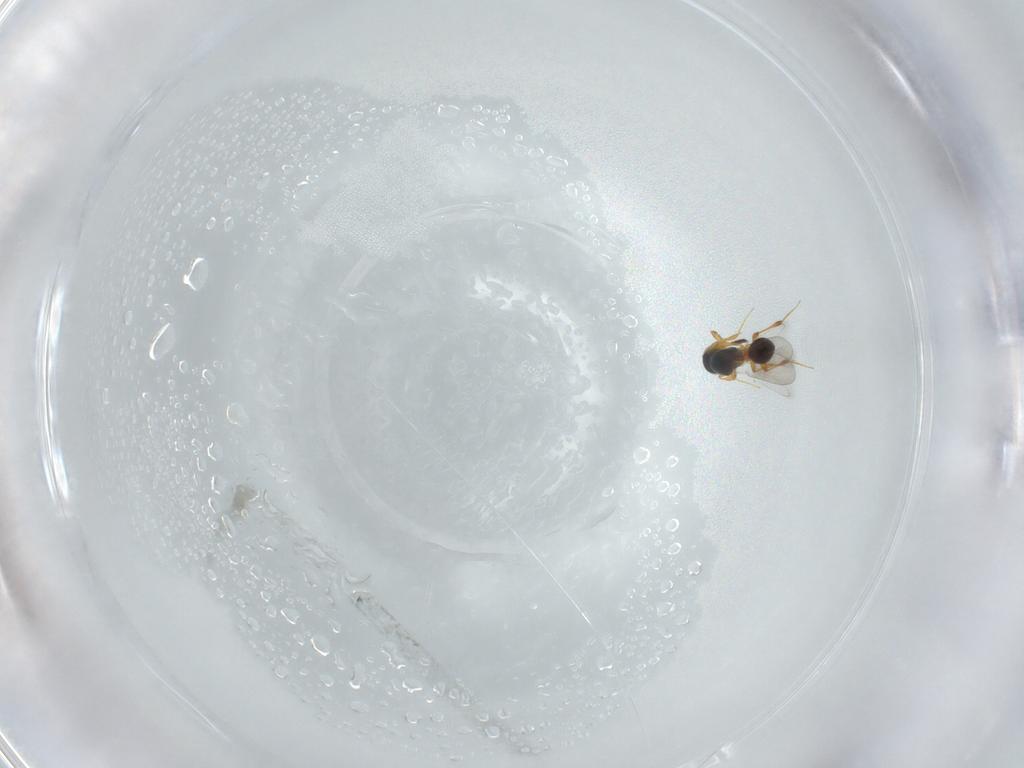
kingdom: Animalia
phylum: Arthropoda
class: Insecta
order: Hymenoptera
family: Platygastridae
